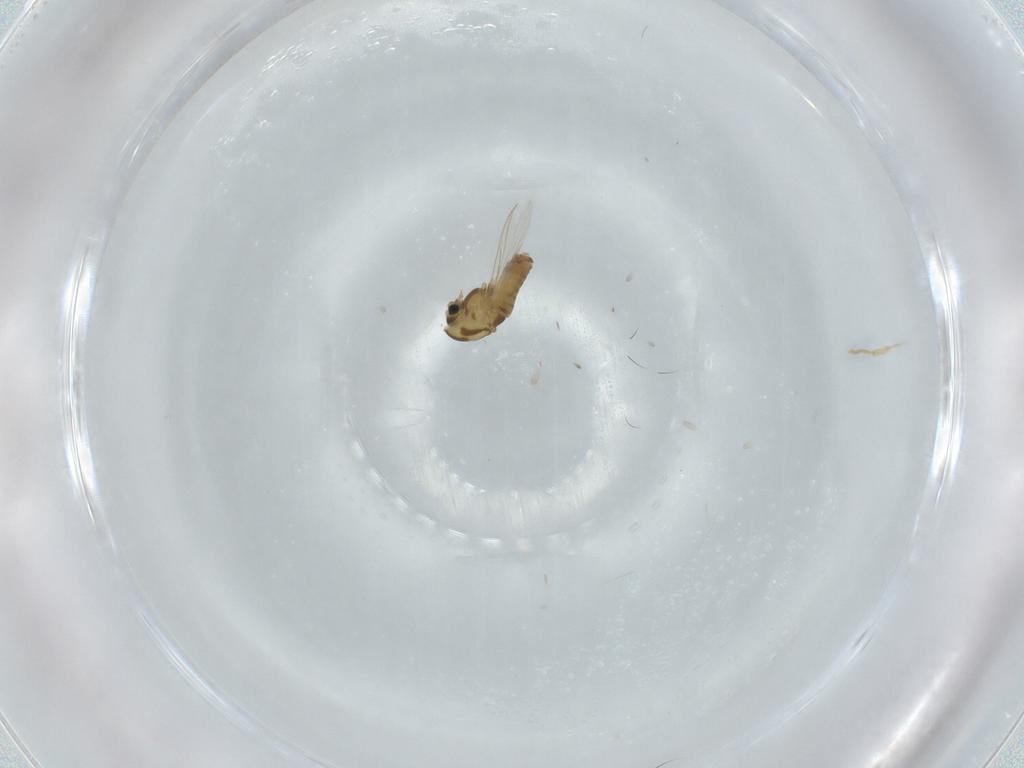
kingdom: Animalia
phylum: Arthropoda
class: Insecta
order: Diptera
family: Chironomidae
